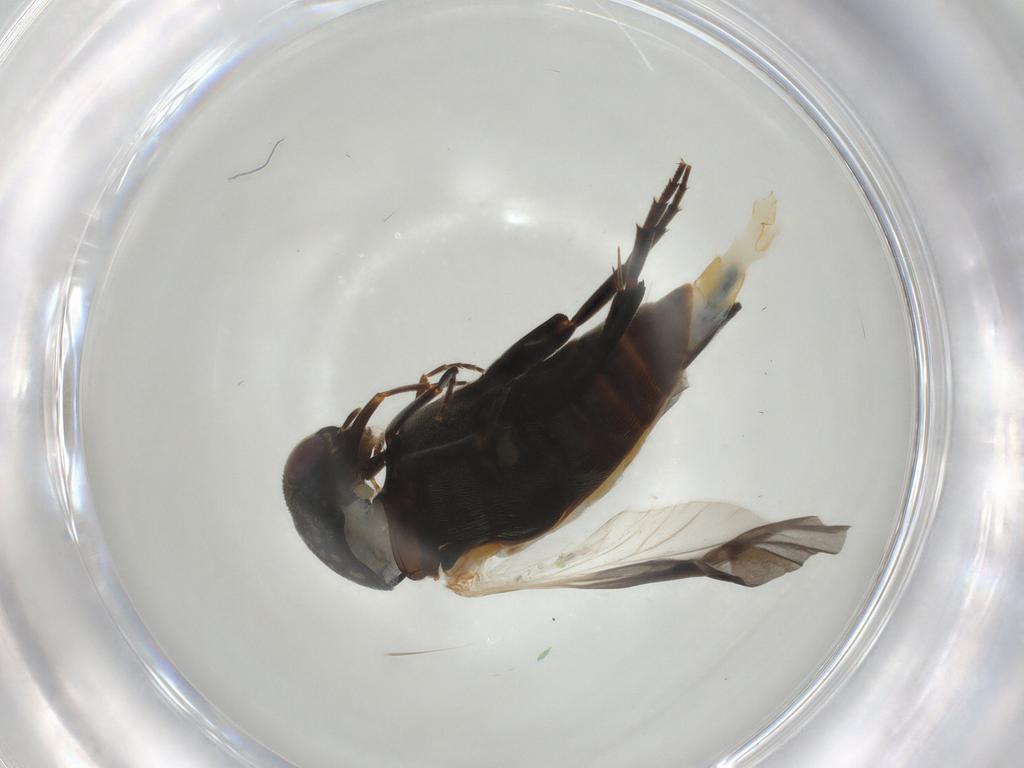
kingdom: Animalia
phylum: Arthropoda
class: Insecta
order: Coleoptera
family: Mordellidae
